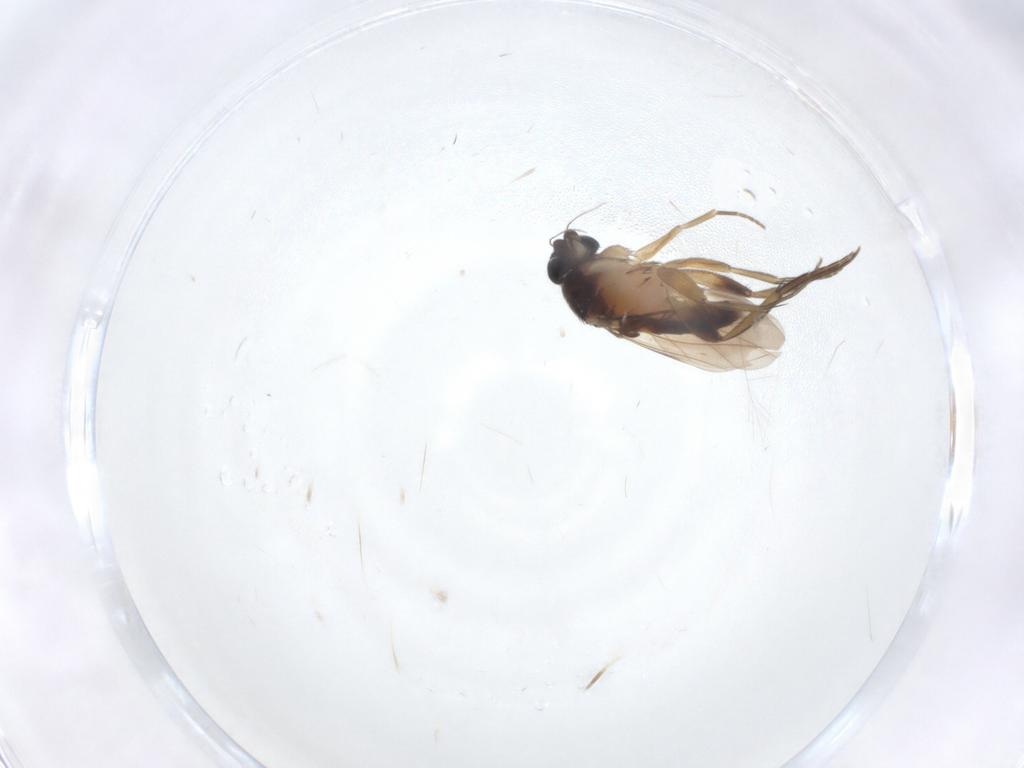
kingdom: Animalia
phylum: Arthropoda
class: Insecta
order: Diptera
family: Phoridae
